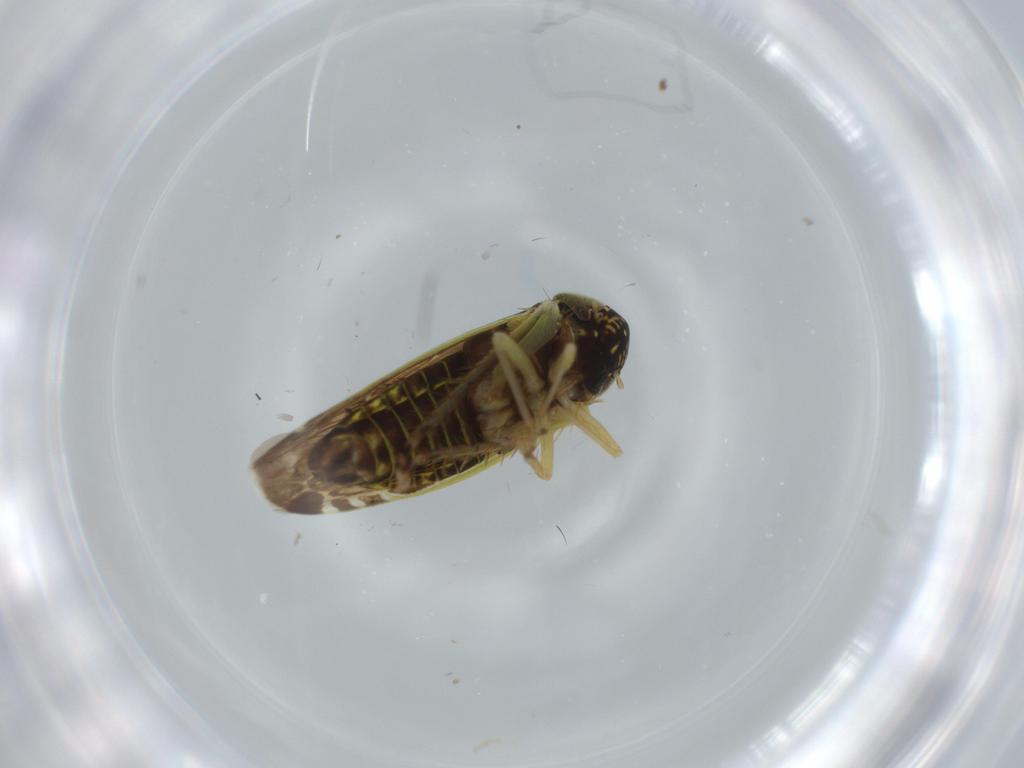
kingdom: Animalia
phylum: Arthropoda
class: Insecta
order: Hemiptera
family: Cicadellidae
